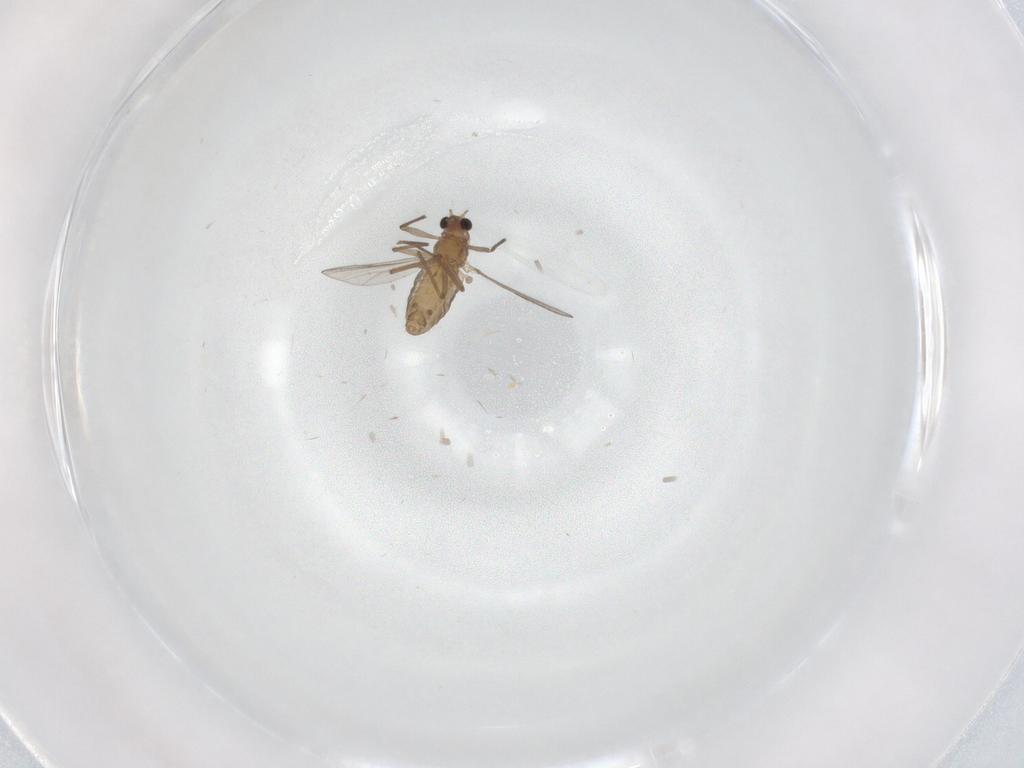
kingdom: Animalia
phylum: Arthropoda
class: Insecta
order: Diptera
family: Chironomidae
